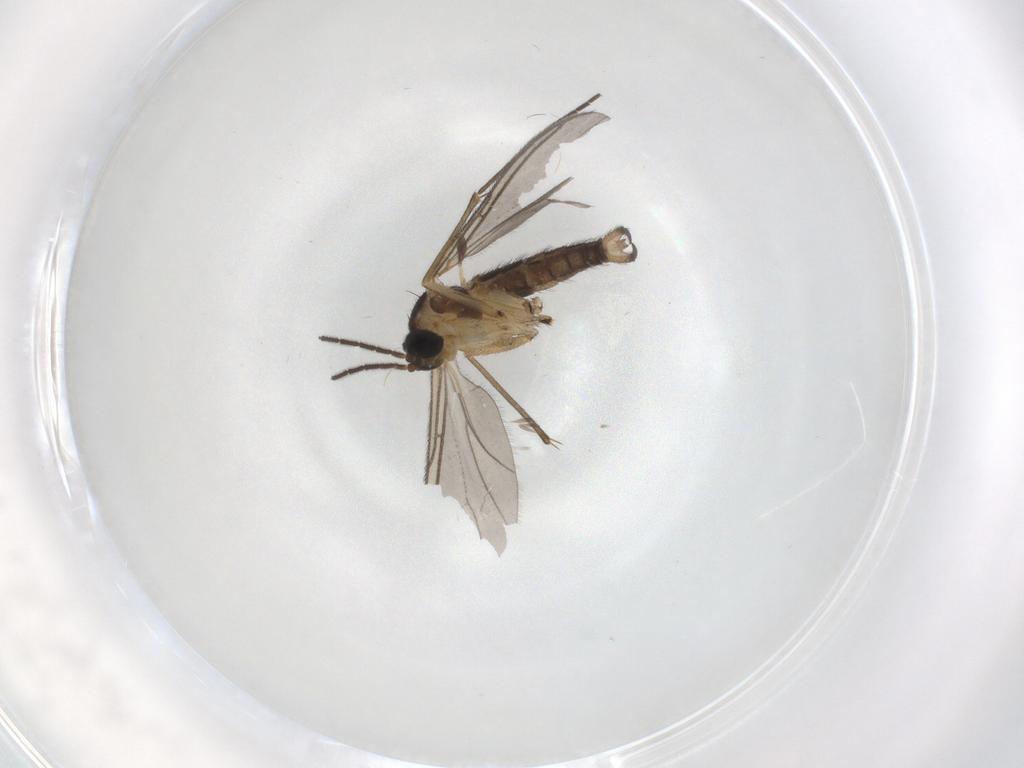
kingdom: Animalia
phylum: Arthropoda
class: Insecta
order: Diptera
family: Sciaridae
